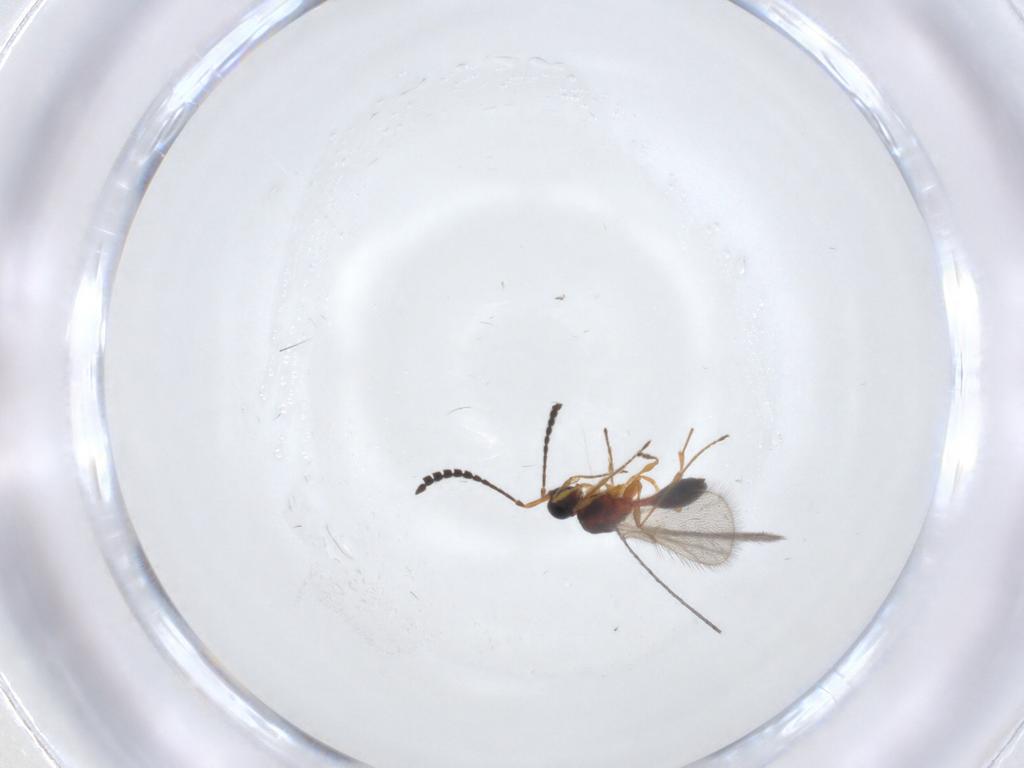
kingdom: Animalia
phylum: Arthropoda
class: Insecta
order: Hymenoptera
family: Diapriidae
